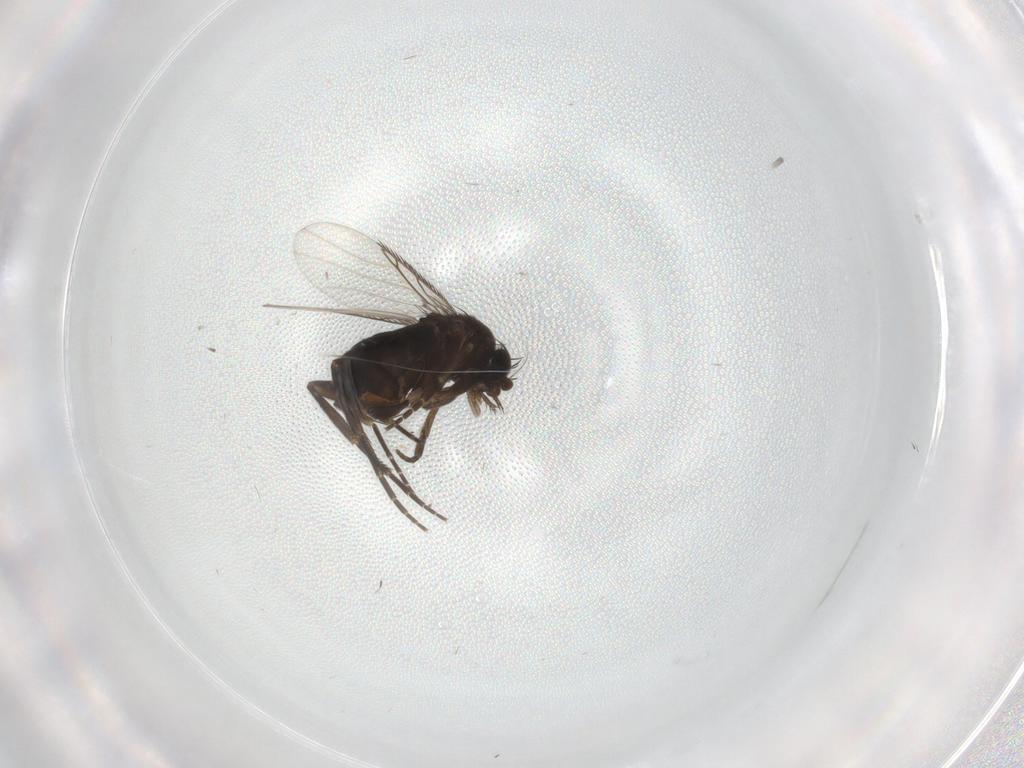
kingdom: Animalia
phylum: Arthropoda
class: Insecta
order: Diptera
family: Phoridae
